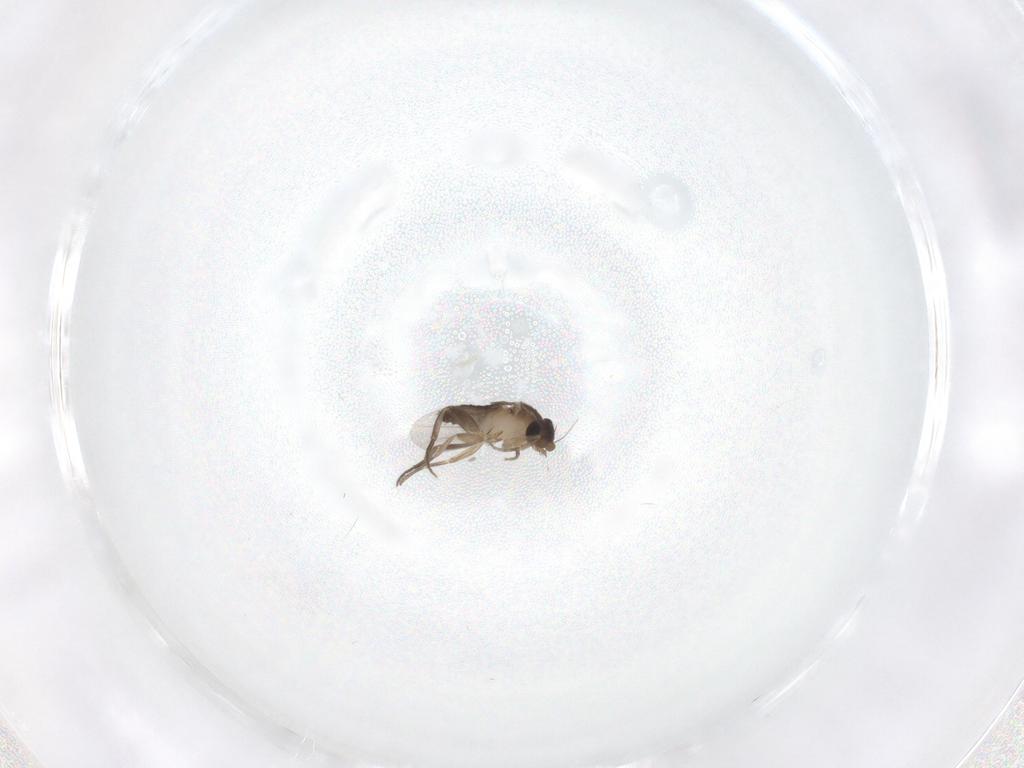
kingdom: Animalia
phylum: Arthropoda
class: Insecta
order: Diptera
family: Phoridae
